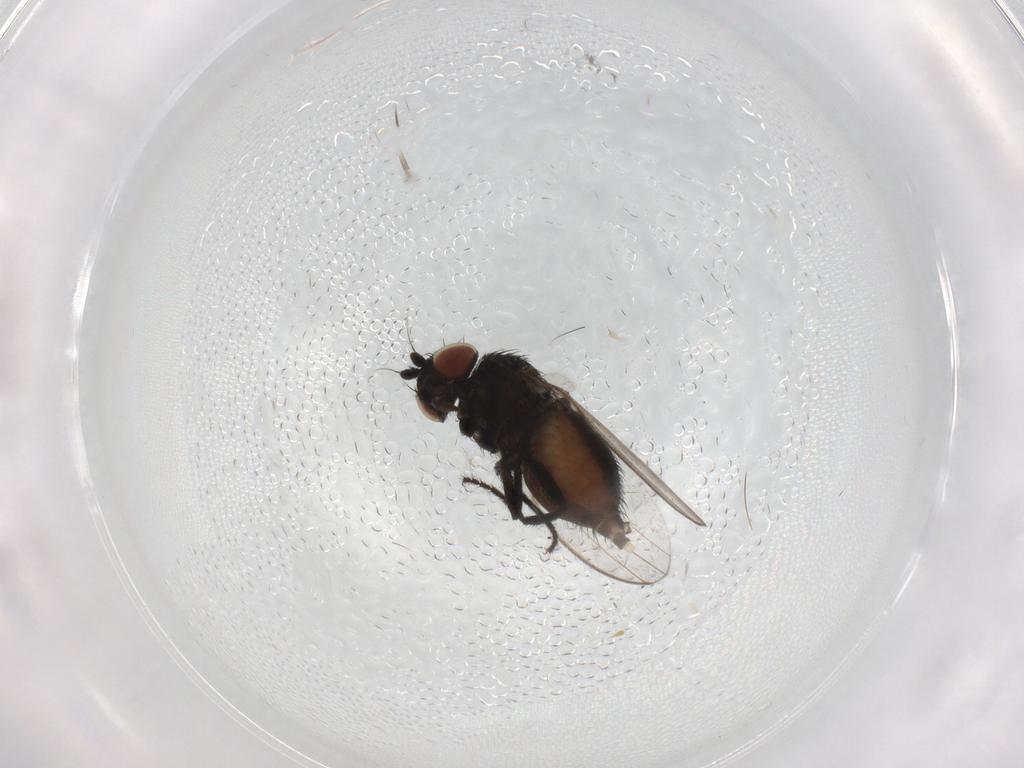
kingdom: Animalia
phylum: Arthropoda
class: Insecta
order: Diptera
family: Milichiidae
